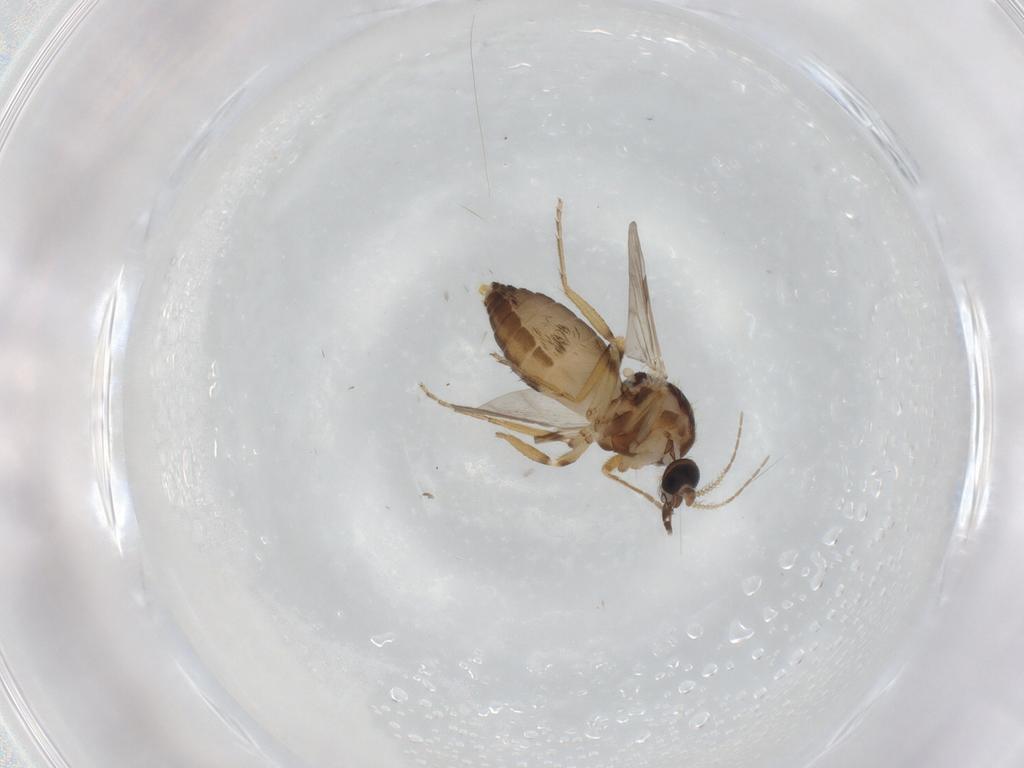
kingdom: Animalia
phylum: Arthropoda
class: Insecta
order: Diptera
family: Ceratopogonidae
